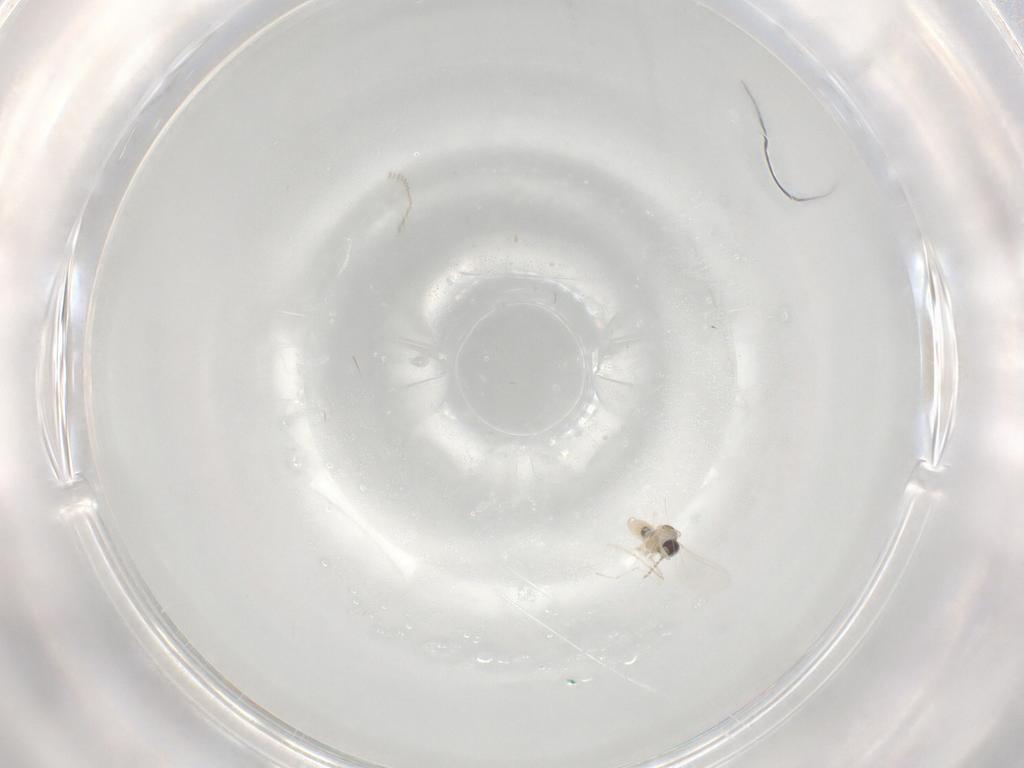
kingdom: Animalia
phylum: Arthropoda
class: Insecta
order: Diptera
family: Cecidomyiidae
